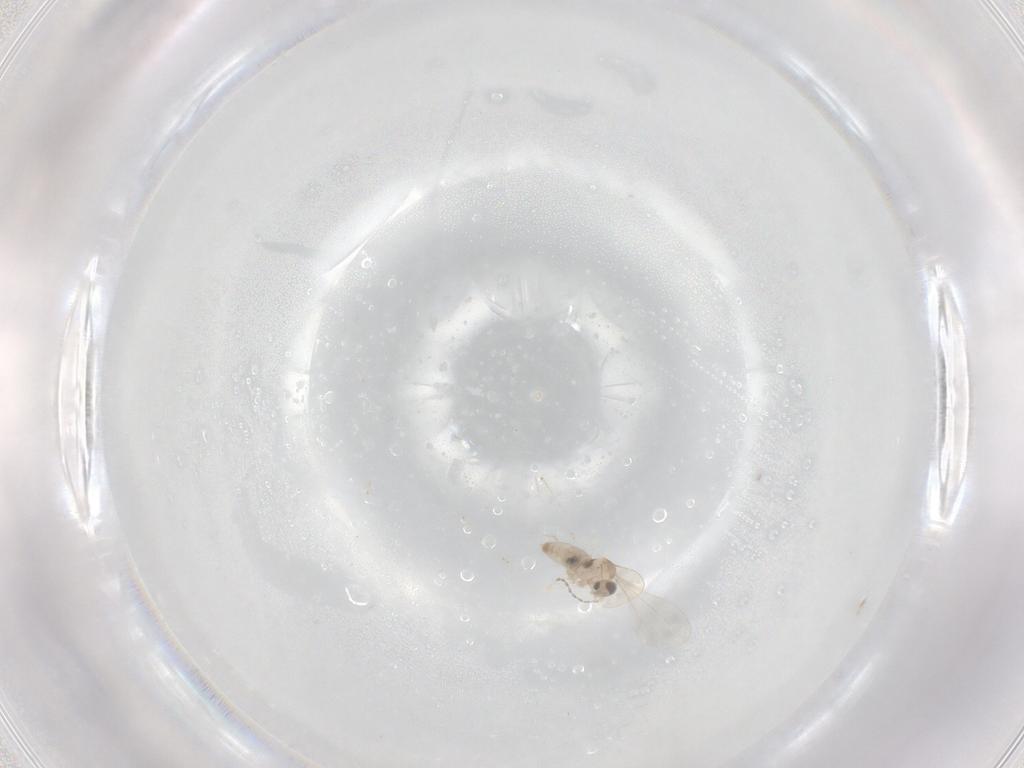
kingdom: Animalia
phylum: Arthropoda
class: Insecta
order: Diptera
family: Cecidomyiidae
